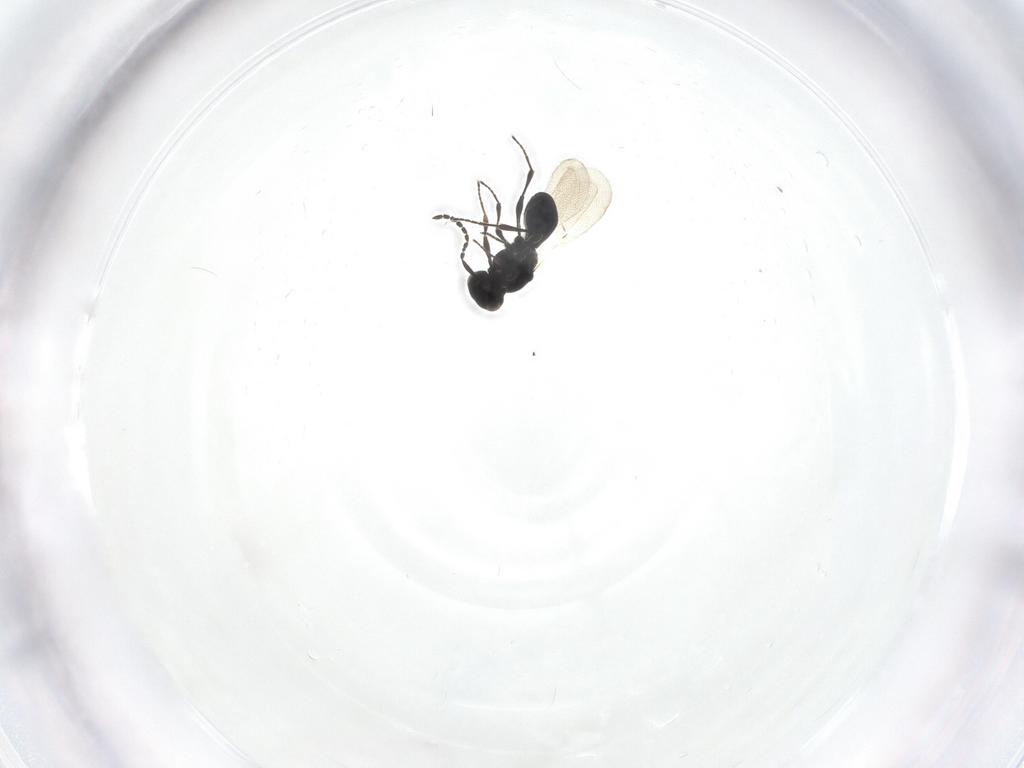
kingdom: Animalia
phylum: Arthropoda
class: Insecta
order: Hymenoptera
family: Platygastridae
